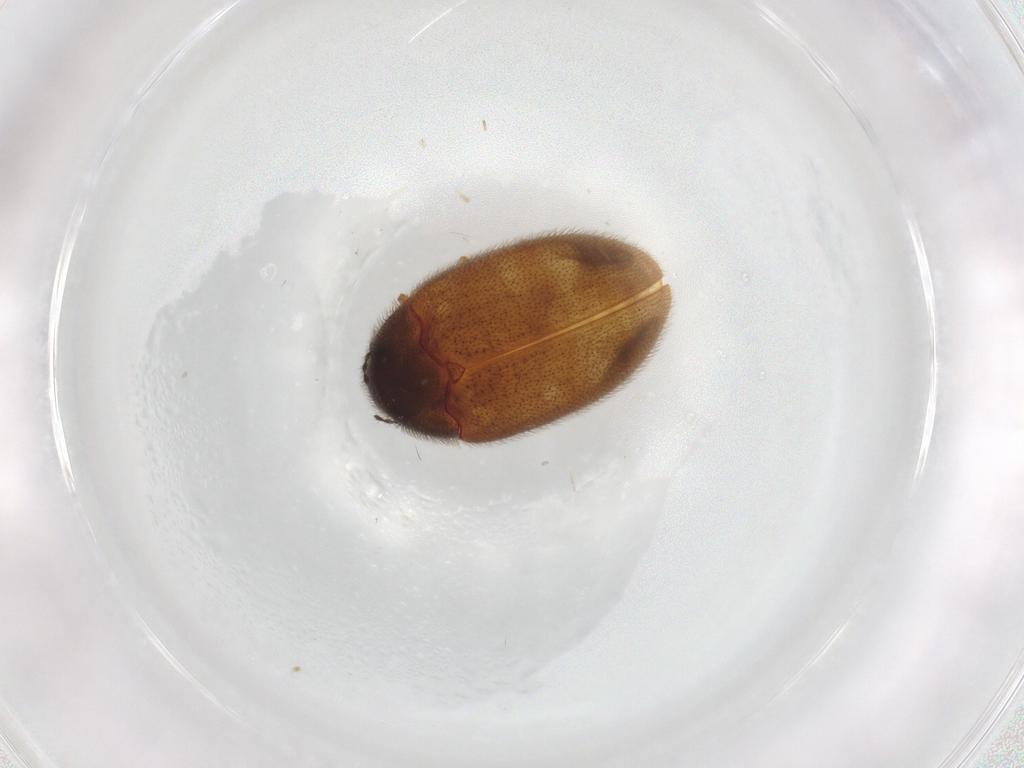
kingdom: Animalia
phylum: Arthropoda
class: Insecta
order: Coleoptera
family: Limnichidae
